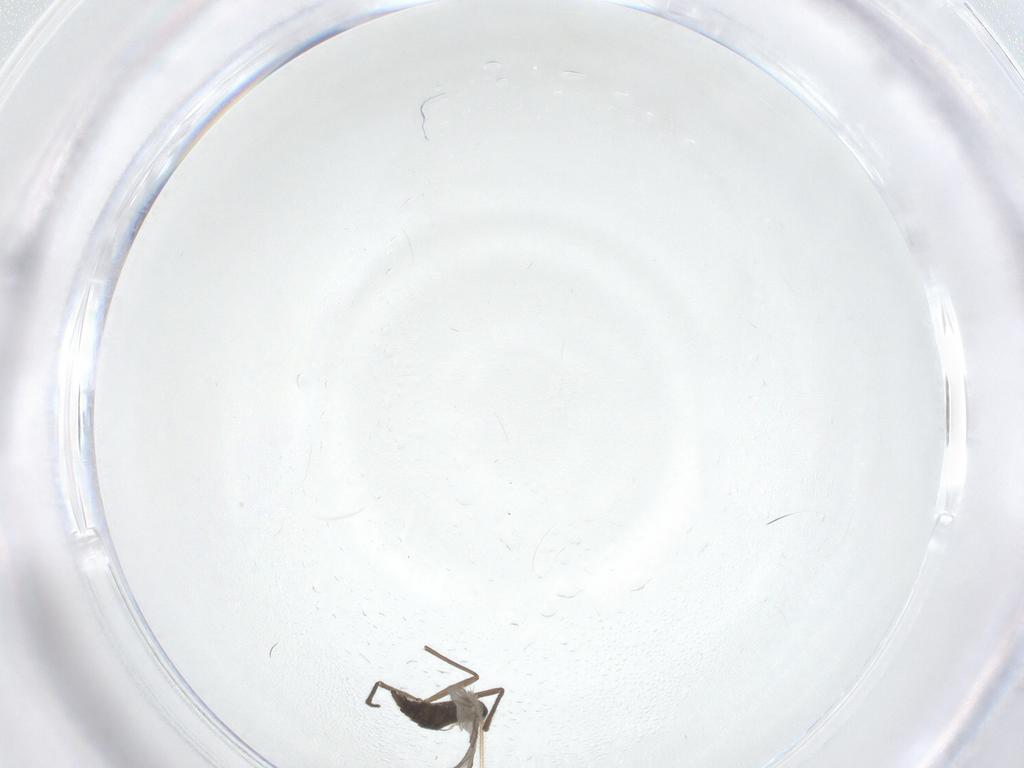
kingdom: Animalia
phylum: Arthropoda
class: Insecta
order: Diptera
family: Sciaridae
